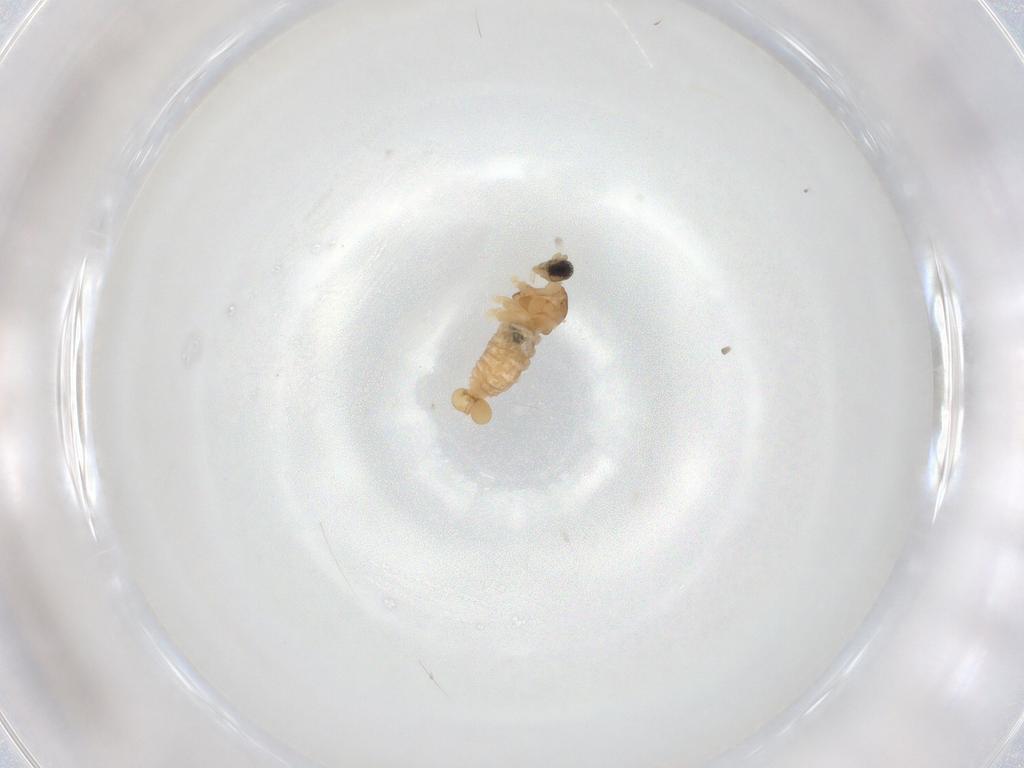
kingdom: Animalia
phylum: Arthropoda
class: Insecta
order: Diptera
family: Cecidomyiidae
